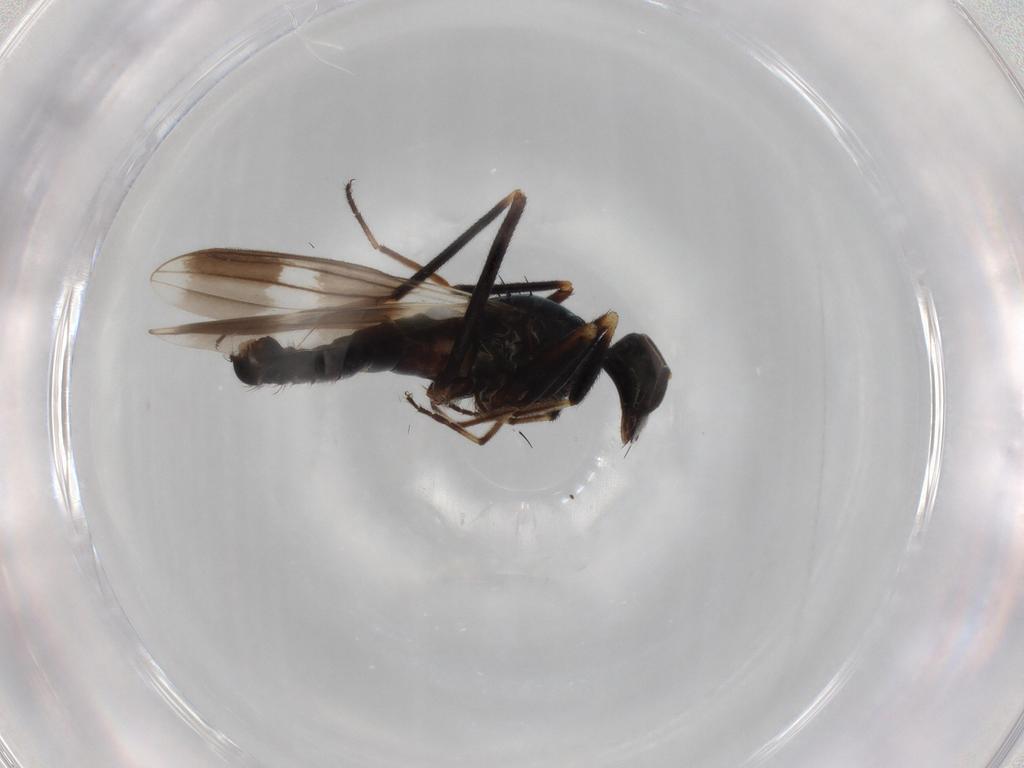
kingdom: Animalia
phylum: Arthropoda
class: Insecta
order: Diptera
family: Hybotidae
